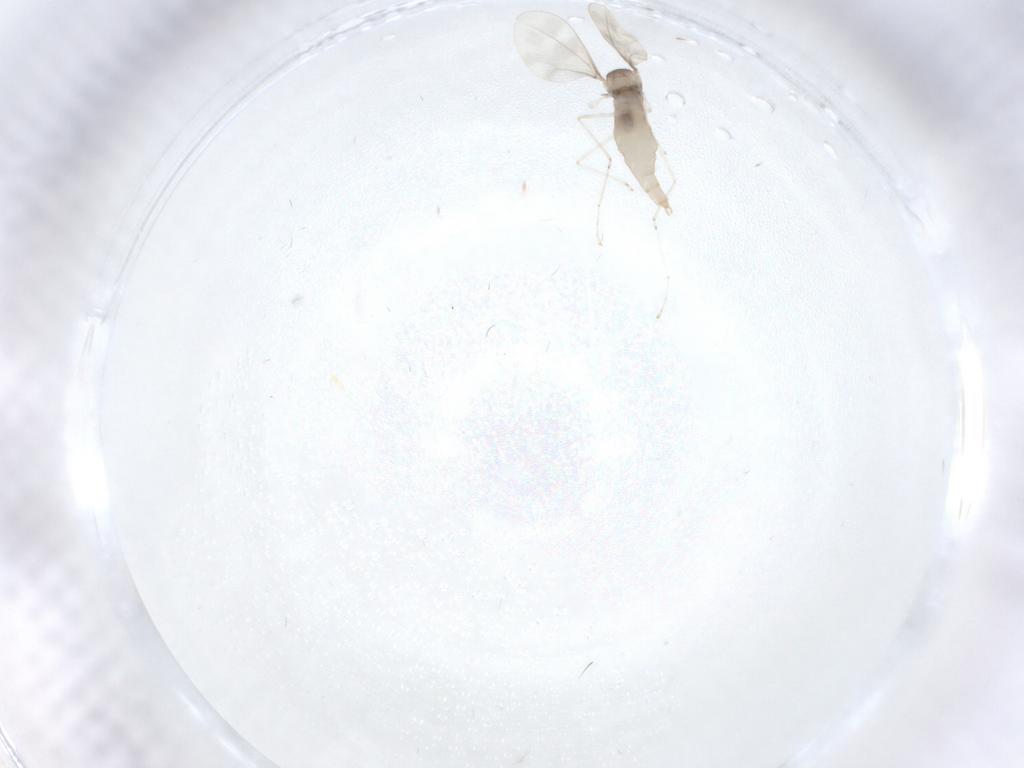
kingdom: Animalia
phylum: Arthropoda
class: Insecta
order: Diptera
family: Cecidomyiidae
